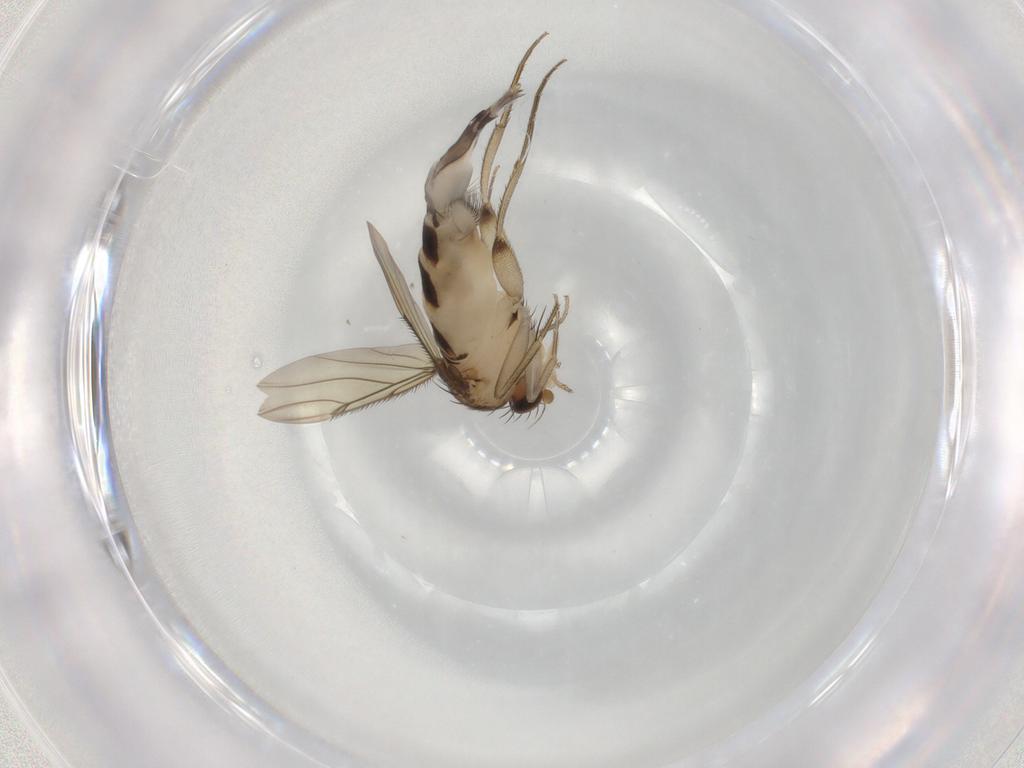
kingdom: Animalia
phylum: Arthropoda
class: Insecta
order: Diptera
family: Phoridae
